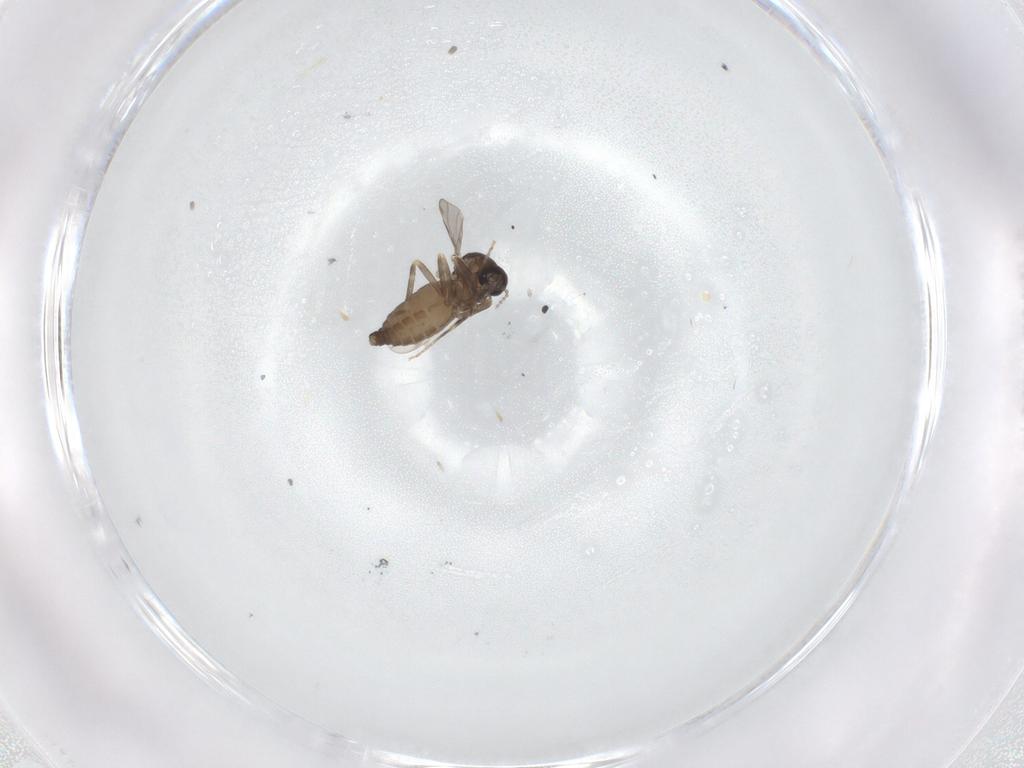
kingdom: Animalia
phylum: Arthropoda
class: Insecta
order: Diptera
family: Ceratopogonidae
